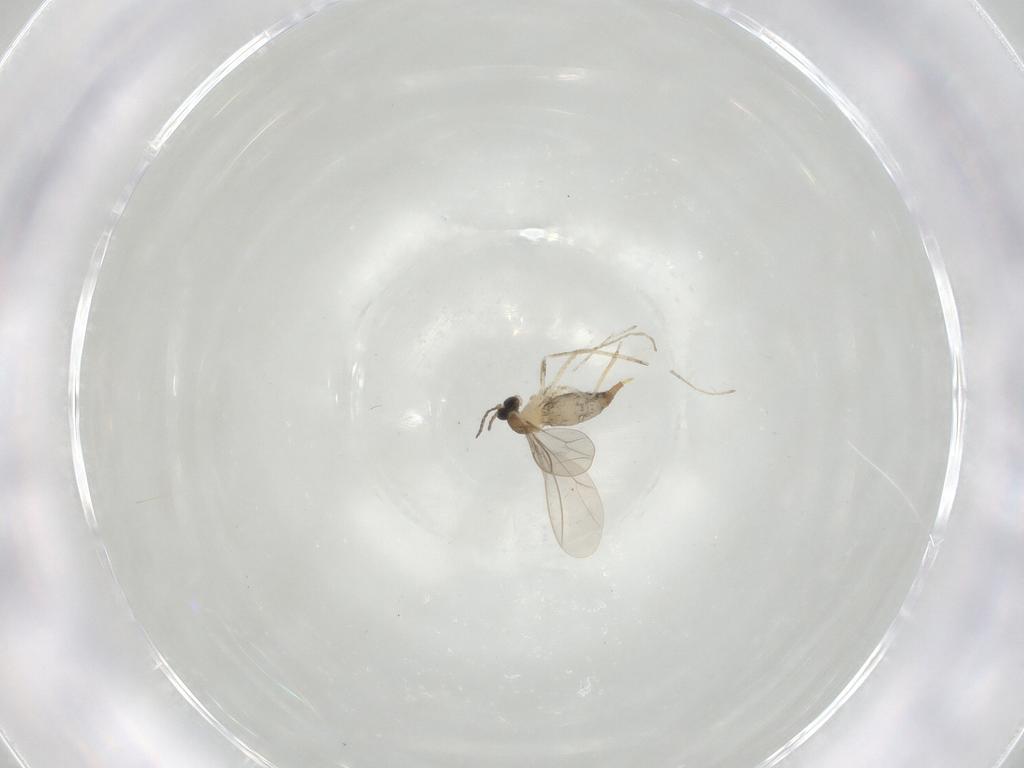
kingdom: Animalia
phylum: Arthropoda
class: Insecta
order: Diptera
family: Cecidomyiidae
